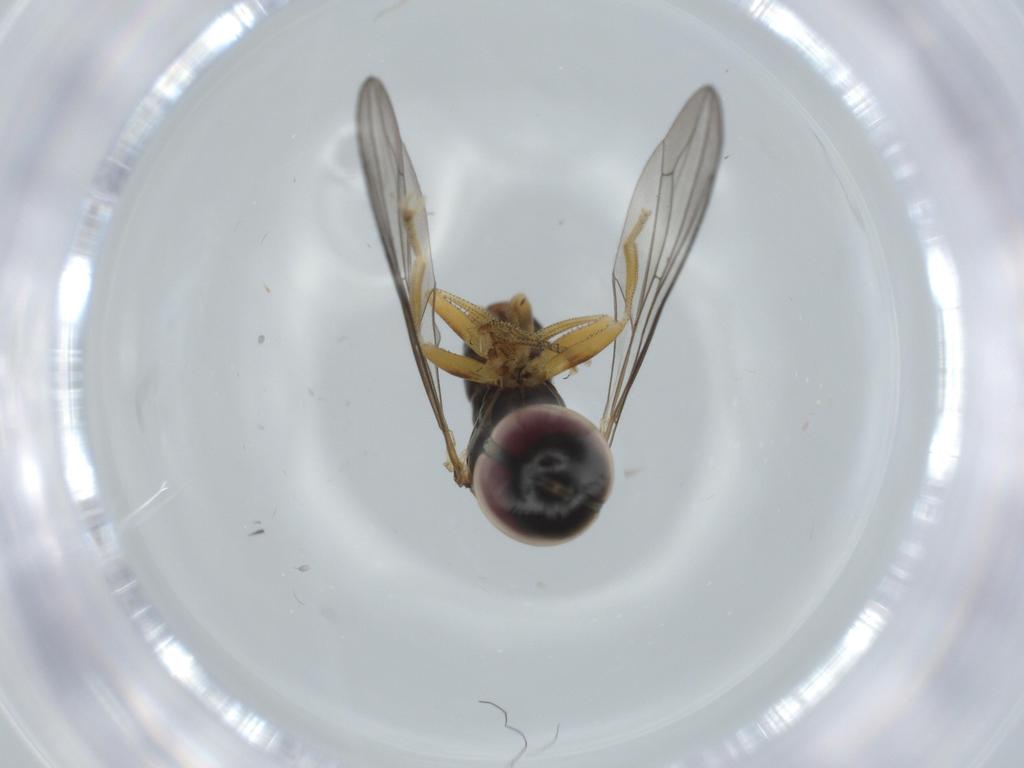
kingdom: Animalia
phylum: Arthropoda
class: Insecta
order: Diptera
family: Pipunculidae
